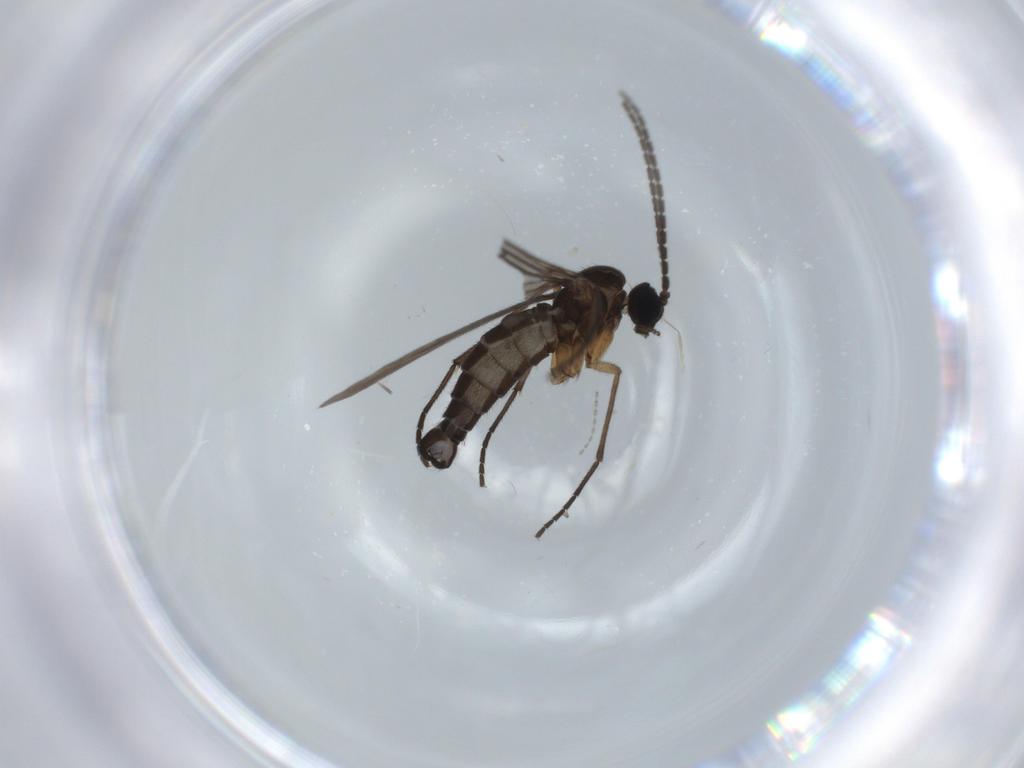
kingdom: Animalia
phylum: Arthropoda
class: Insecta
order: Diptera
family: Sciaridae
